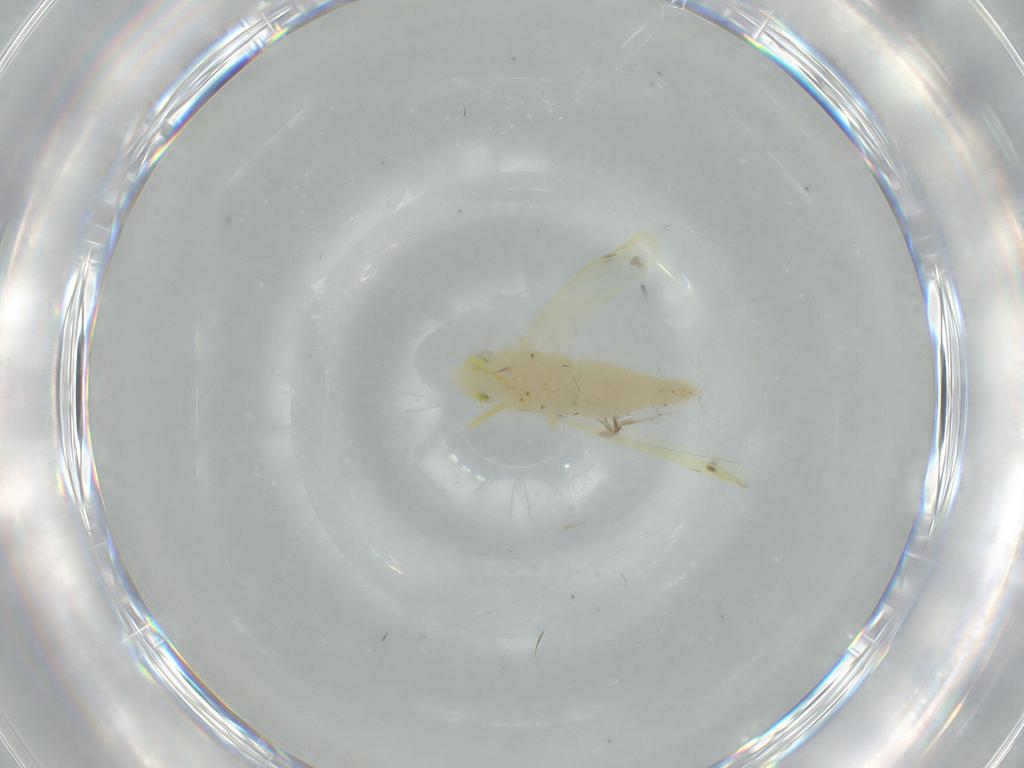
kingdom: Animalia
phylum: Arthropoda
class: Insecta
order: Hemiptera
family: Cicadellidae
